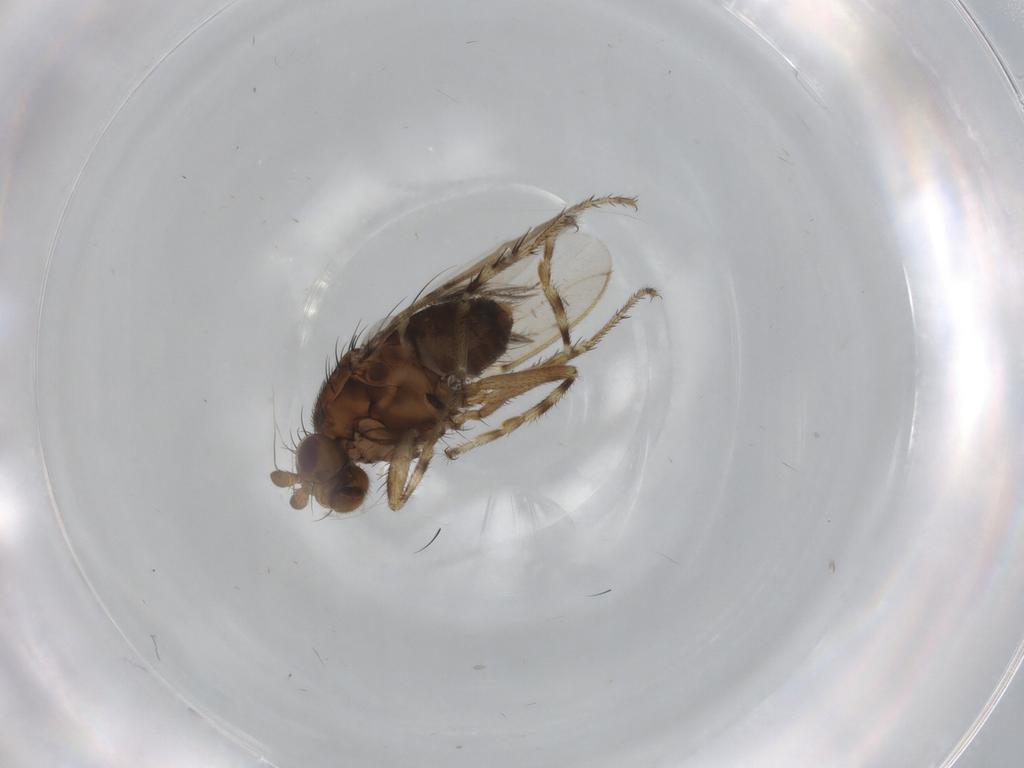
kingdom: Animalia
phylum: Arthropoda
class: Insecta
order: Diptera
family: Sphaeroceridae
